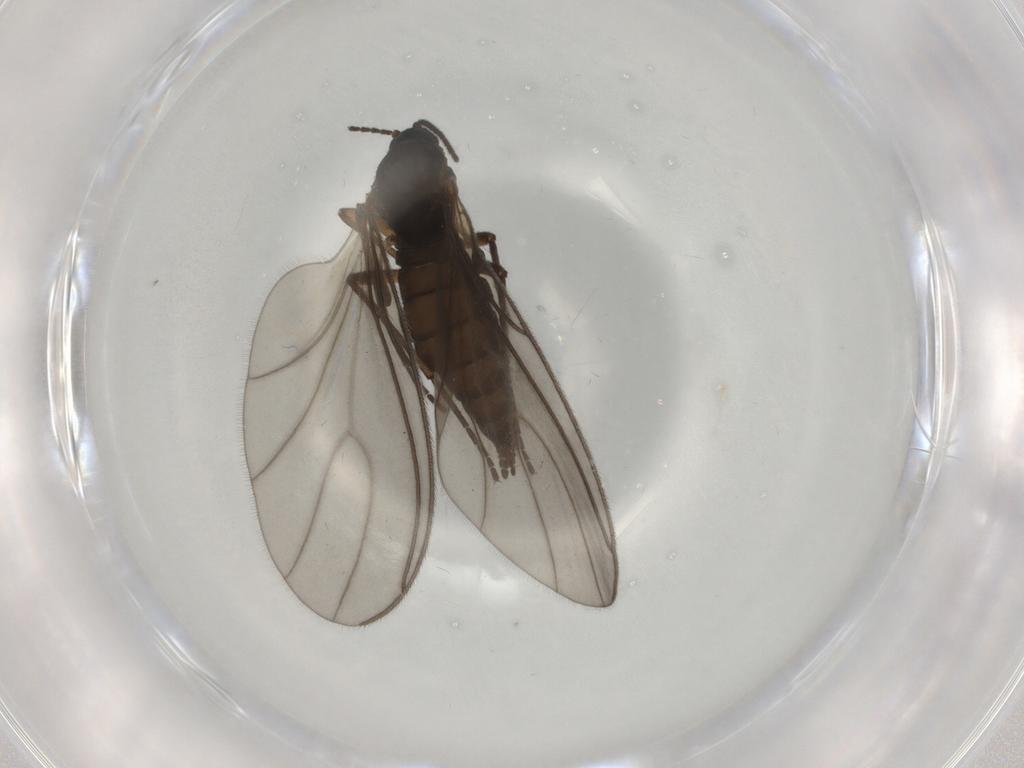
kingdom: Animalia
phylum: Arthropoda
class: Insecta
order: Diptera
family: Sciaridae
